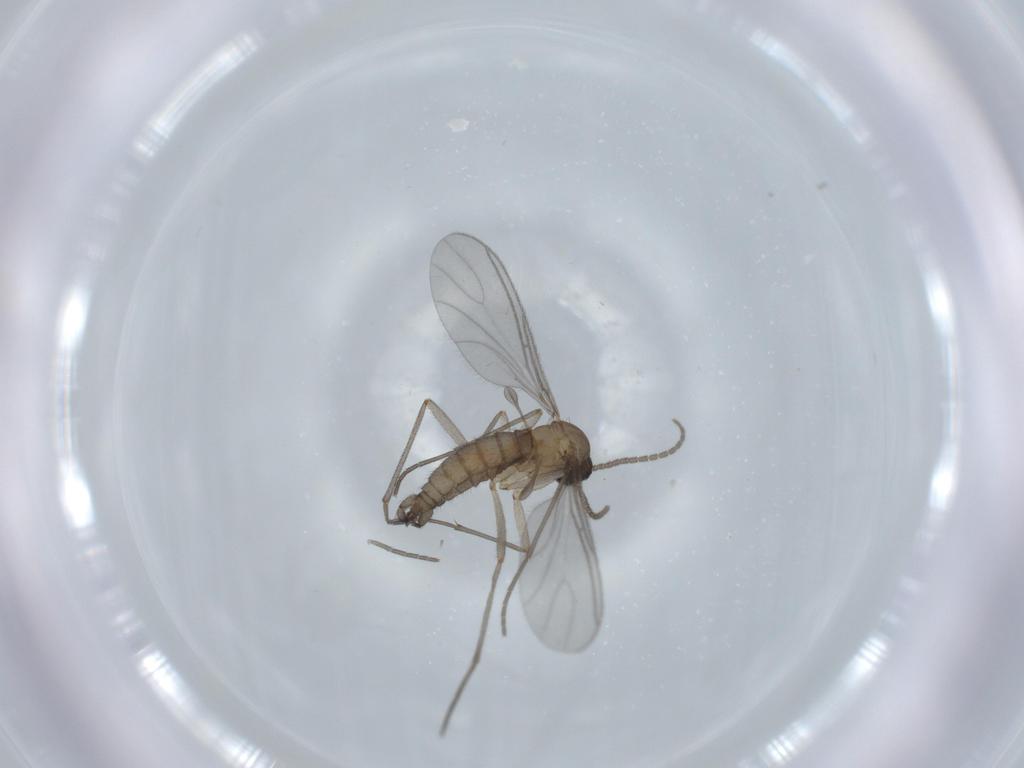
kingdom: Animalia
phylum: Arthropoda
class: Insecta
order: Diptera
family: Sciaridae
